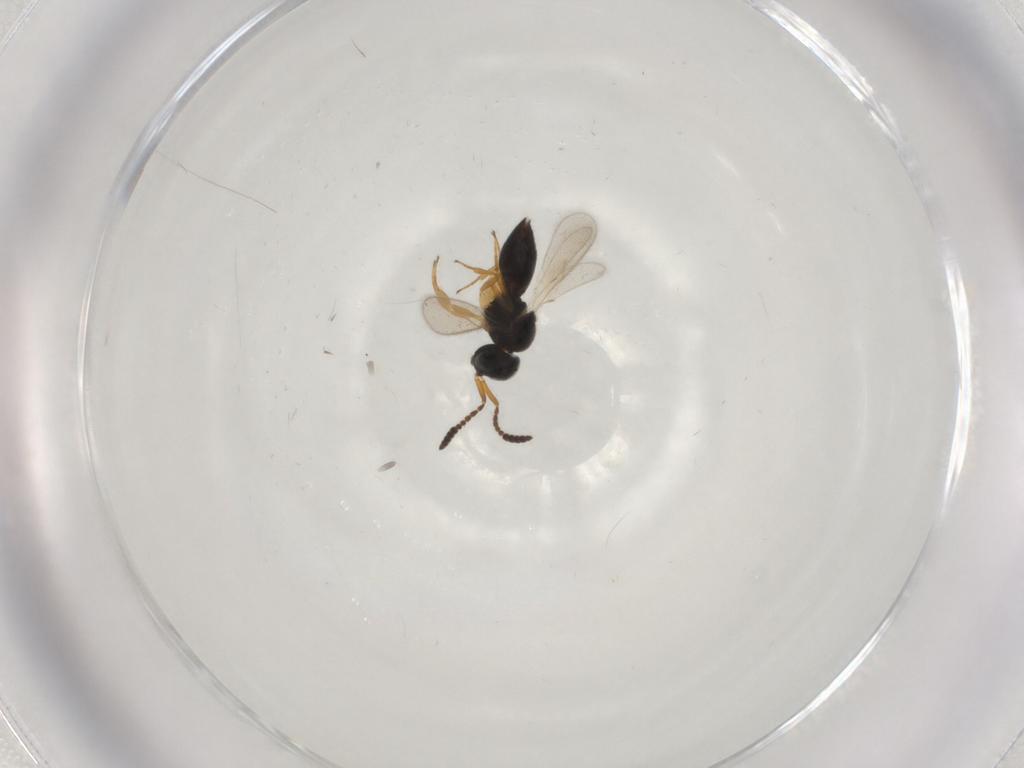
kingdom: Animalia
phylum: Arthropoda
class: Insecta
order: Hymenoptera
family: Scelionidae
